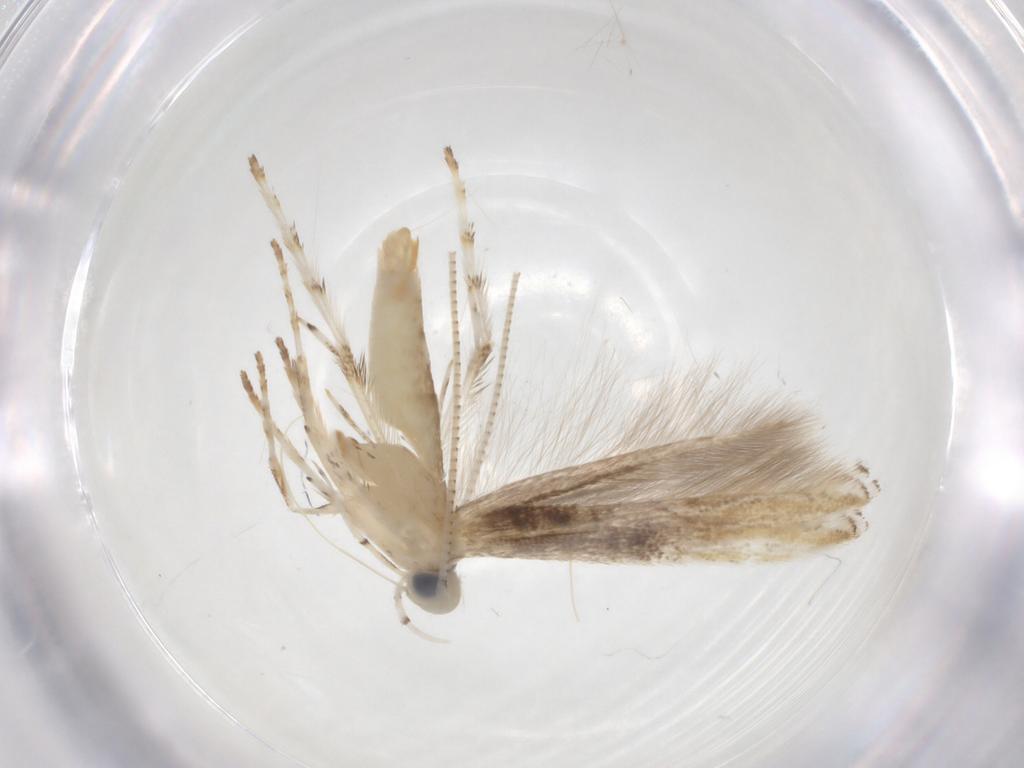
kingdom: Animalia
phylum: Arthropoda
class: Insecta
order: Lepidoptera
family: Gracillariidae
